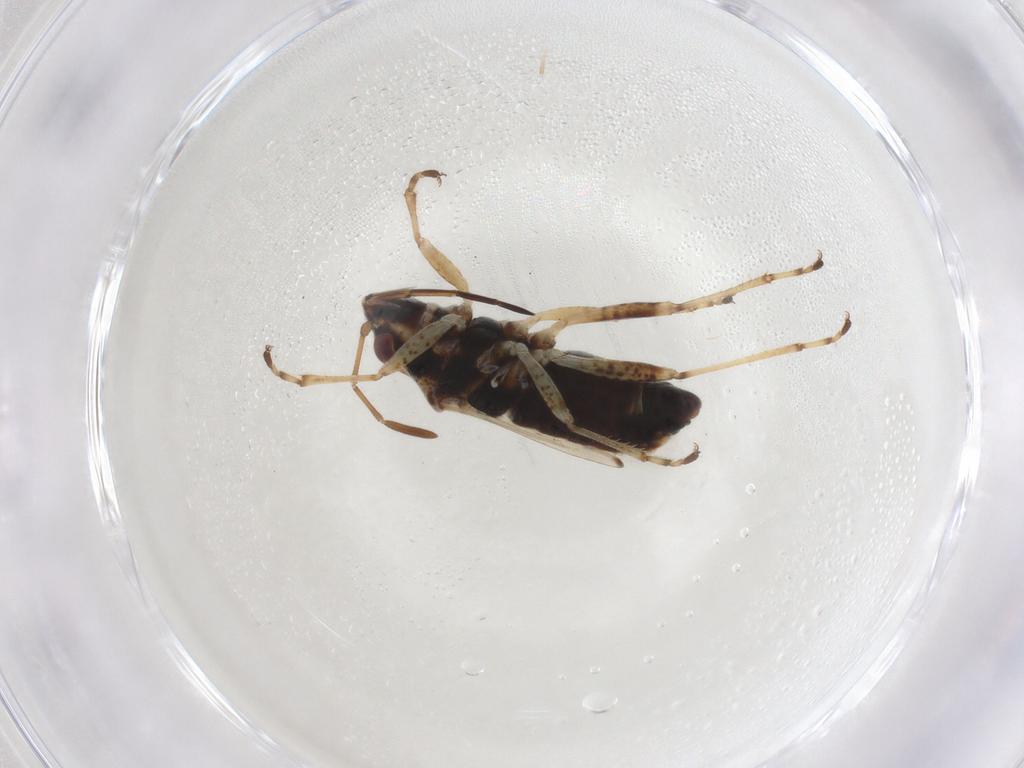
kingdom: Animalia
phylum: Arthropoda
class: Insecta
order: Hemiptera
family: Lygaeidae
